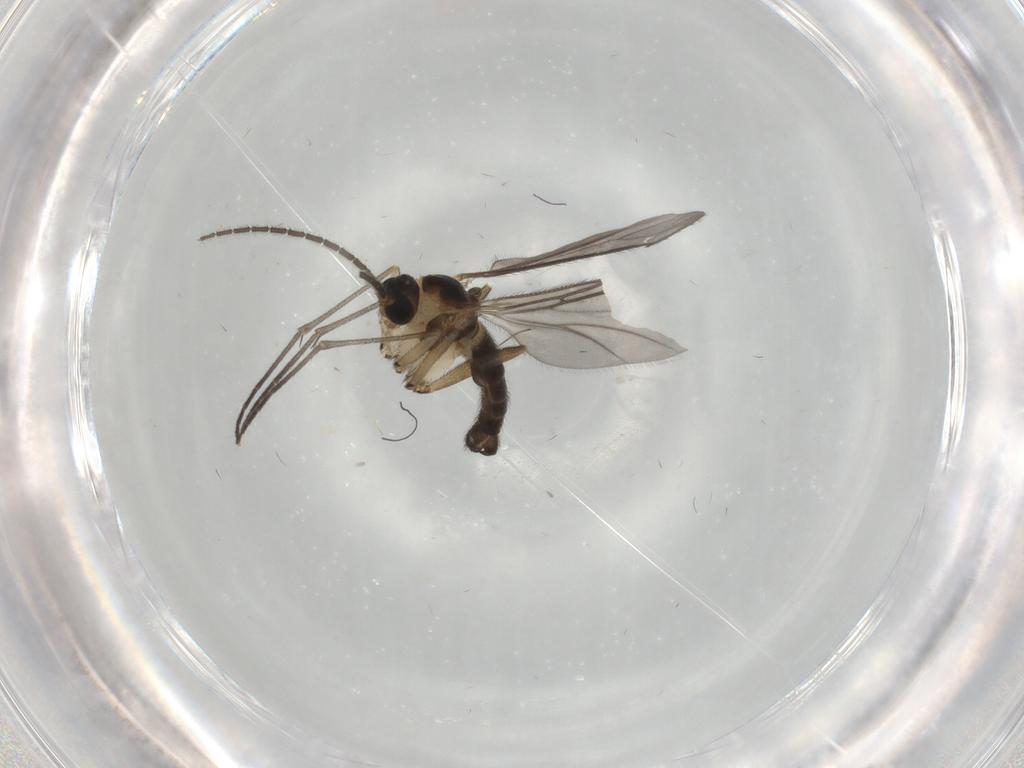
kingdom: Animalia
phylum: Arthropoda
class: Insecta
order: Diptera
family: Sciaridae
